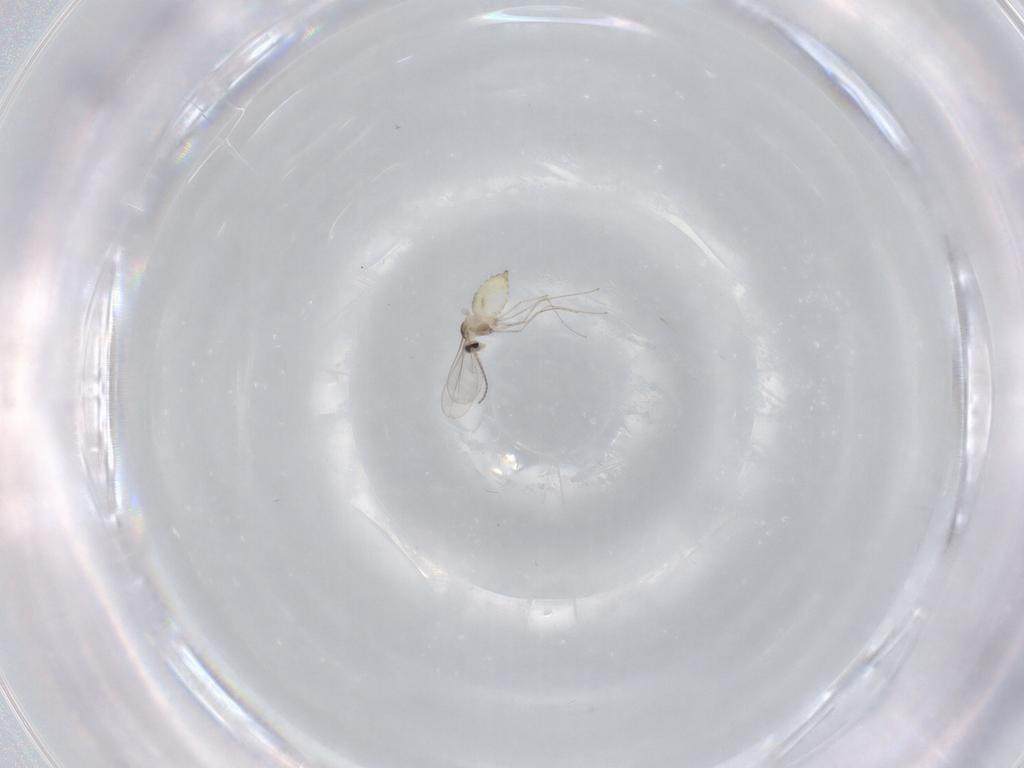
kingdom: Animalia
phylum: Arthropoda
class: Insecta
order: Diptera
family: Cecidomyiidae
